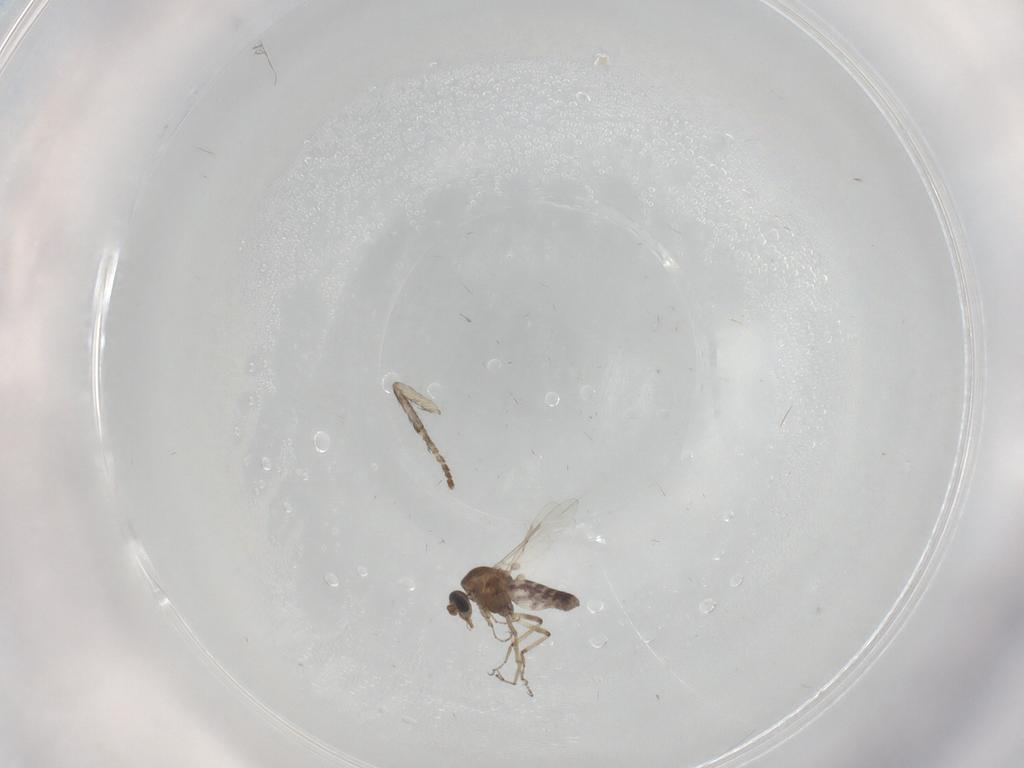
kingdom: Animalia
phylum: Arthropoda
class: Insecta
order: Diptera
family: Ceratopogonidae
